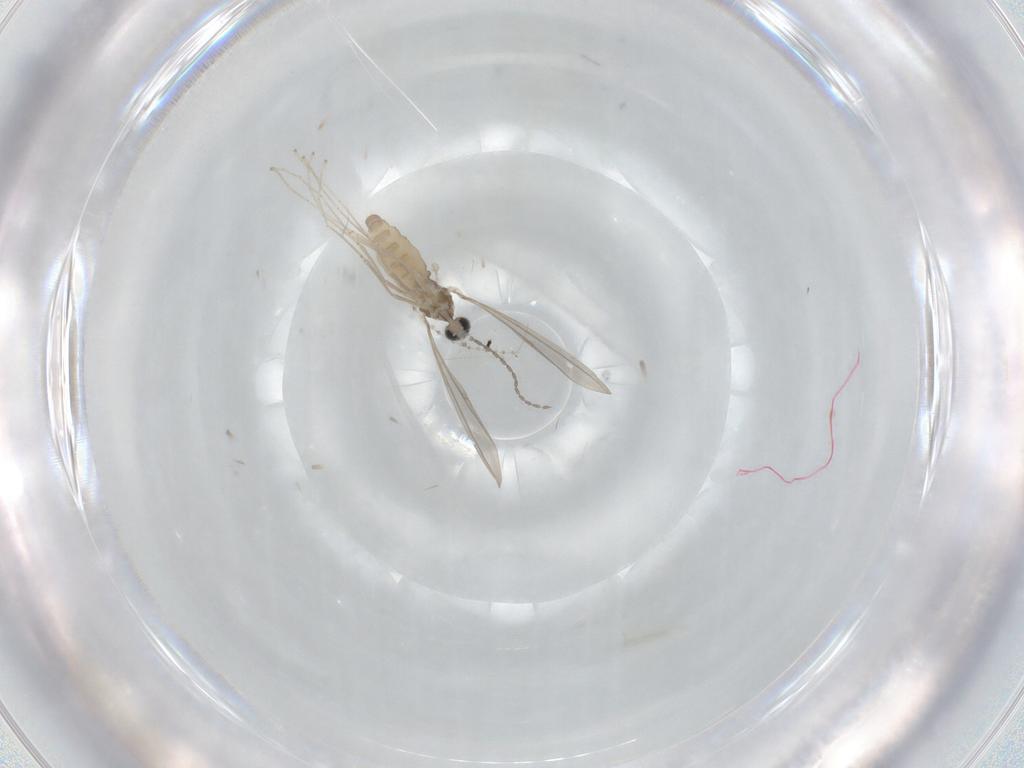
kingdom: Animalia
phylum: Arthropoda
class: Insecta
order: Diptera
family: Cecidomyiidae
